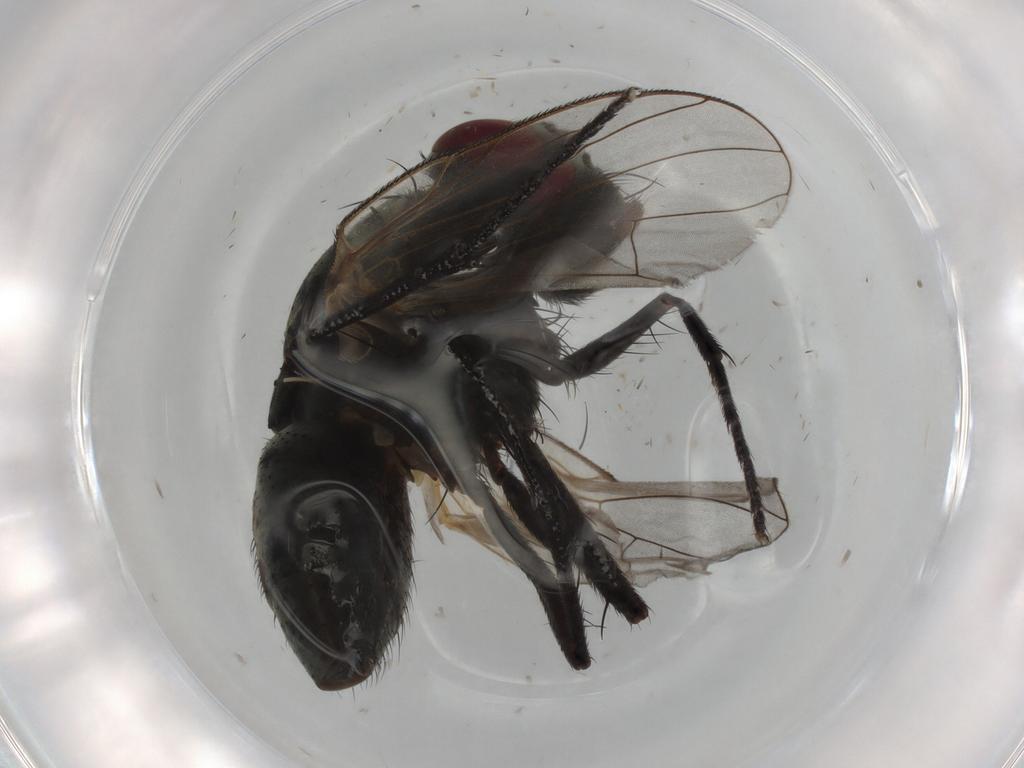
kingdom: Animalia
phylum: Arthropoda
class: Insecta
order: Diptera
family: Muscidae
